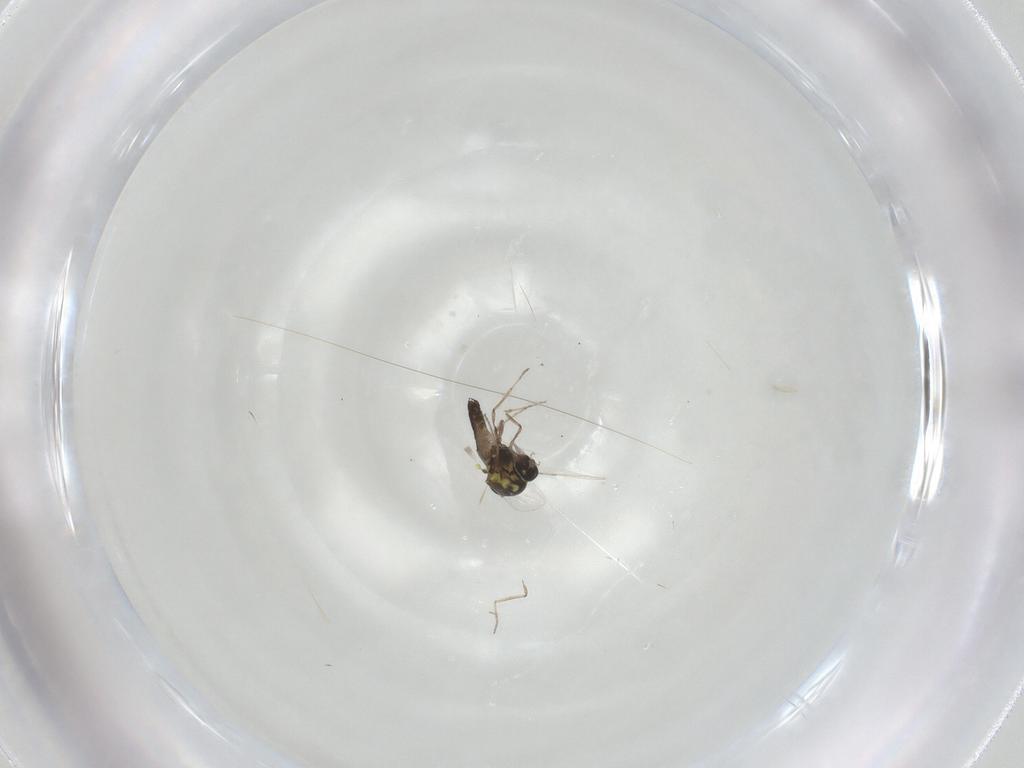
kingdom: Animalia
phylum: Arthropoda
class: Insecta
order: Diptera
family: Ceratopogonidae
